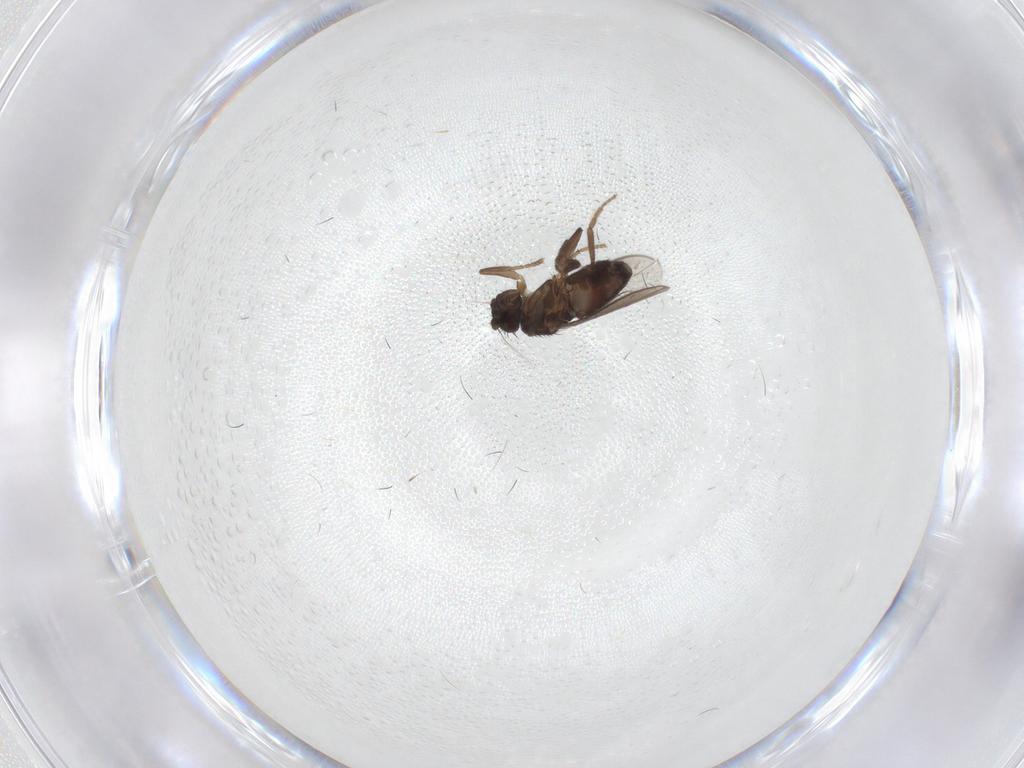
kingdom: Animalia
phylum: Arthropoda
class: Insecta
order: Diptera
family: Sphaeroceridae
